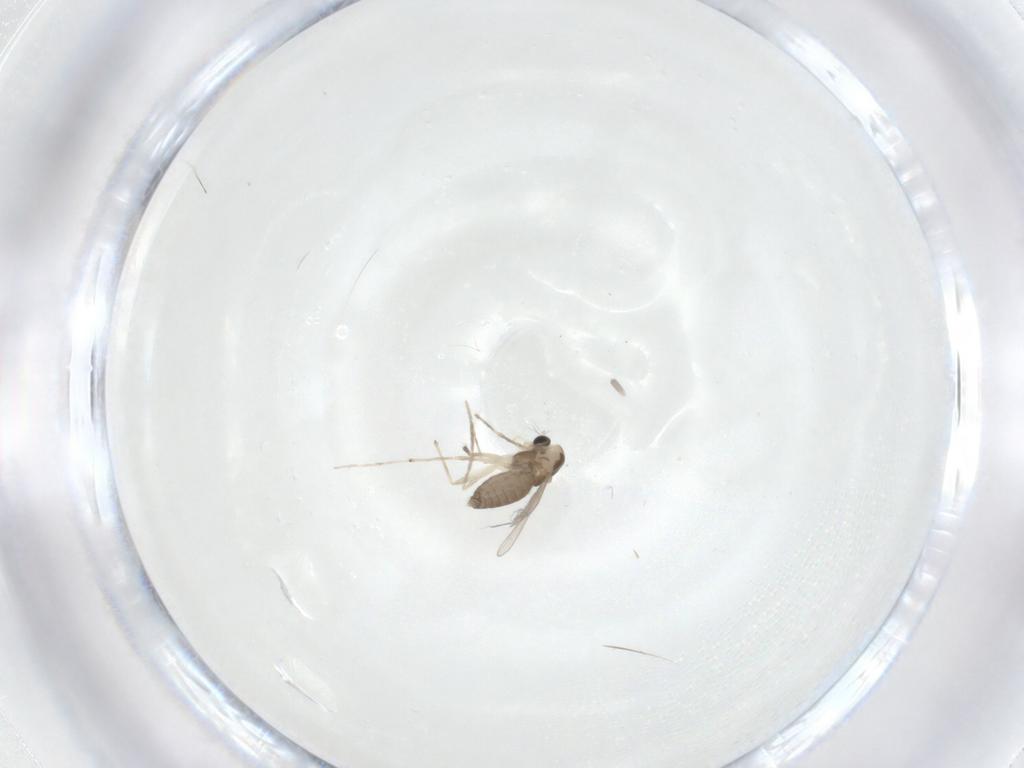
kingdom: Animalia
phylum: Arthropoda
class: Insecta
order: Diptera
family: Chironomidae
